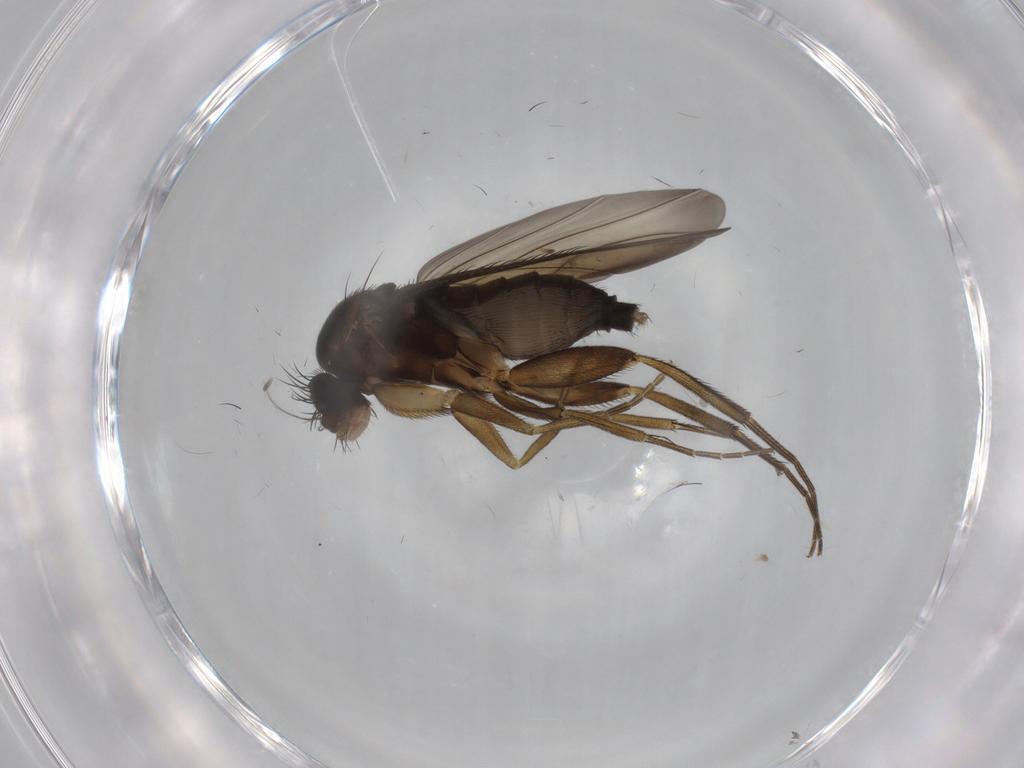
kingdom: Animalia
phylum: Arthropoda
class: Insecta
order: Diptera
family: Phoridae
